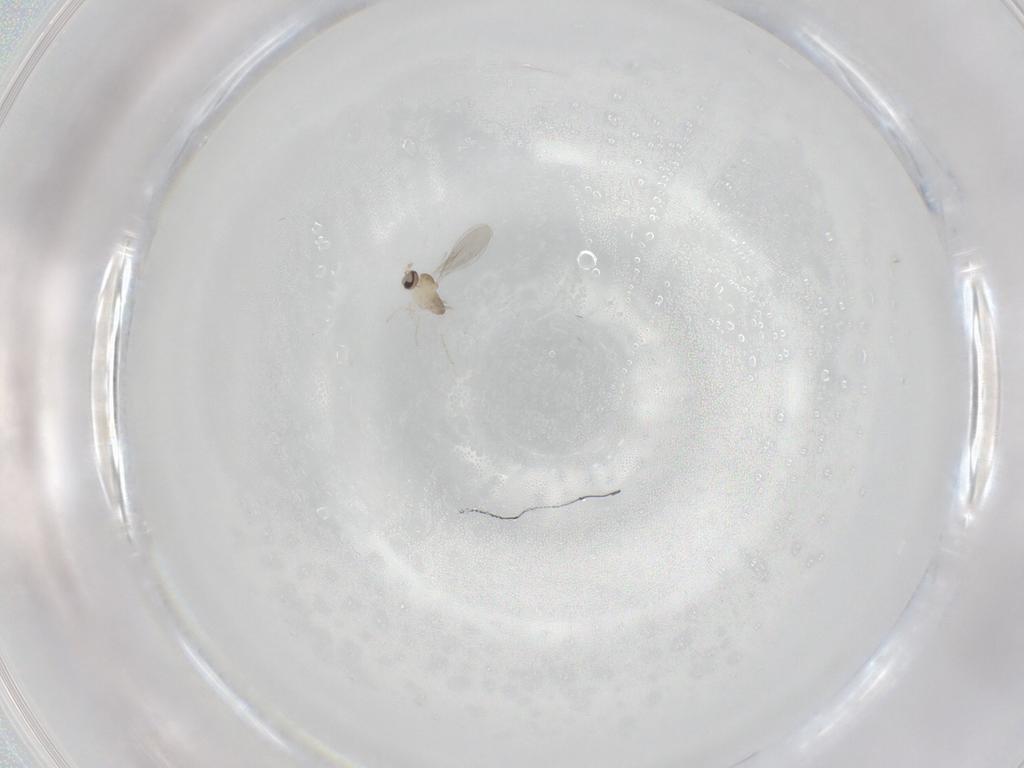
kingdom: Animalia
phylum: Arthropoda
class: Insecta
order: Diptera
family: Cecidomyiidae
